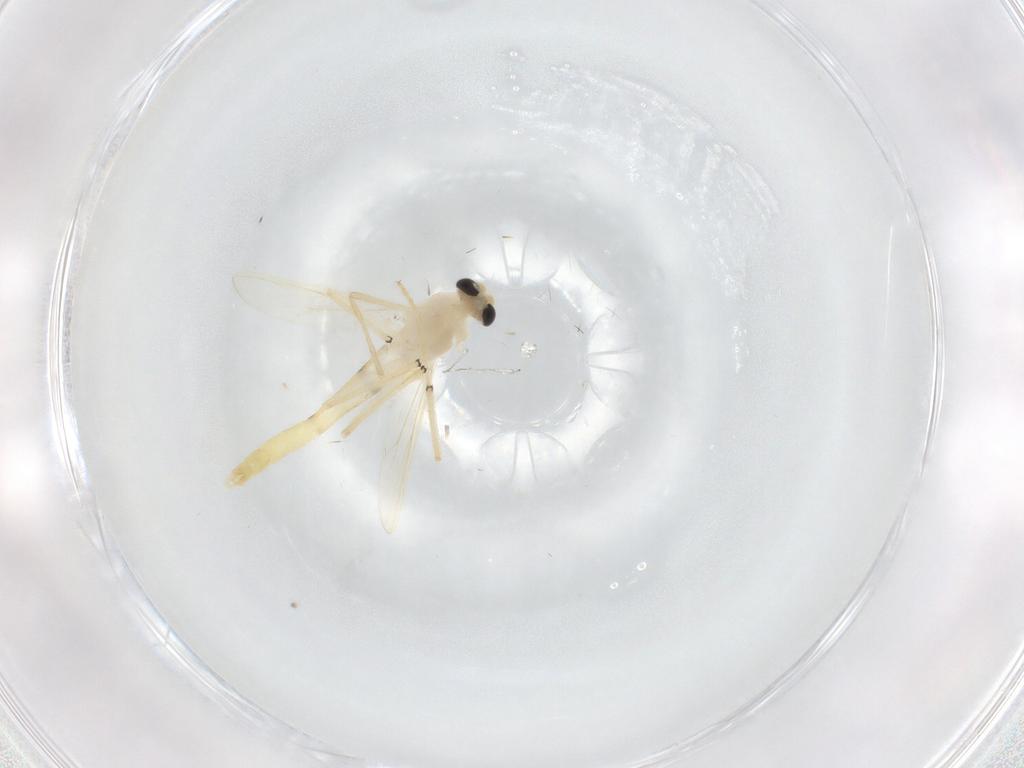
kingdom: Animalia
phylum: Arthropoda
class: Insecta
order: Diptera
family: Chironomidae
